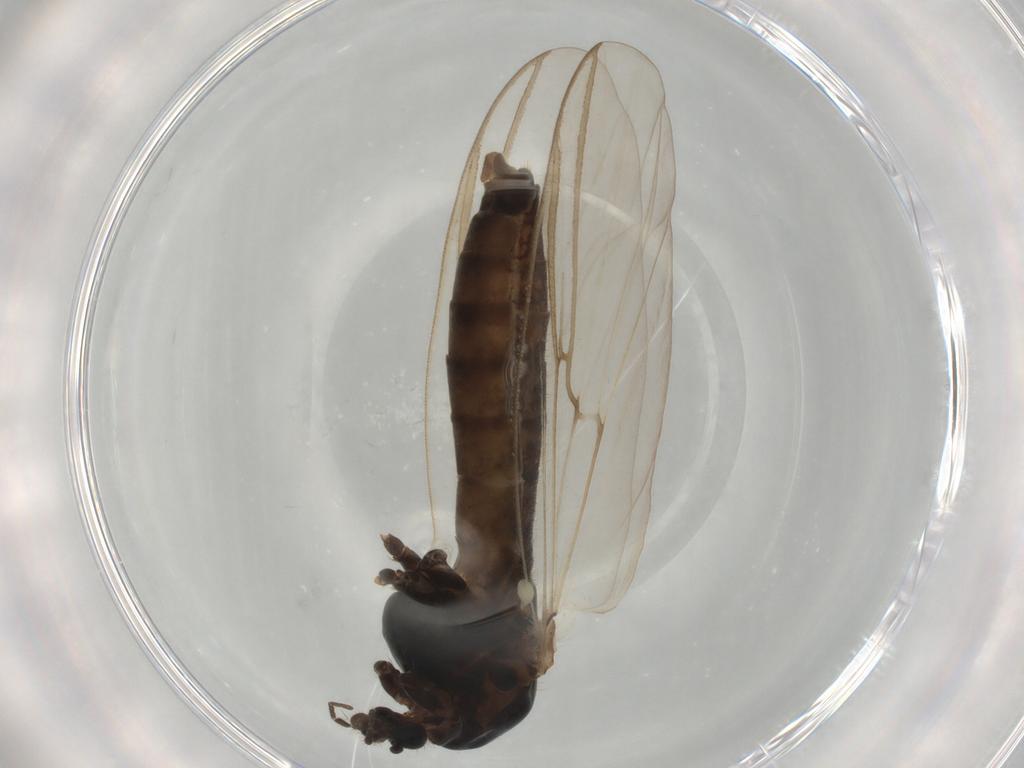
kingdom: Animalia
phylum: Arthropoda
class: Insecta
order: Diptera
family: Chironomidae
